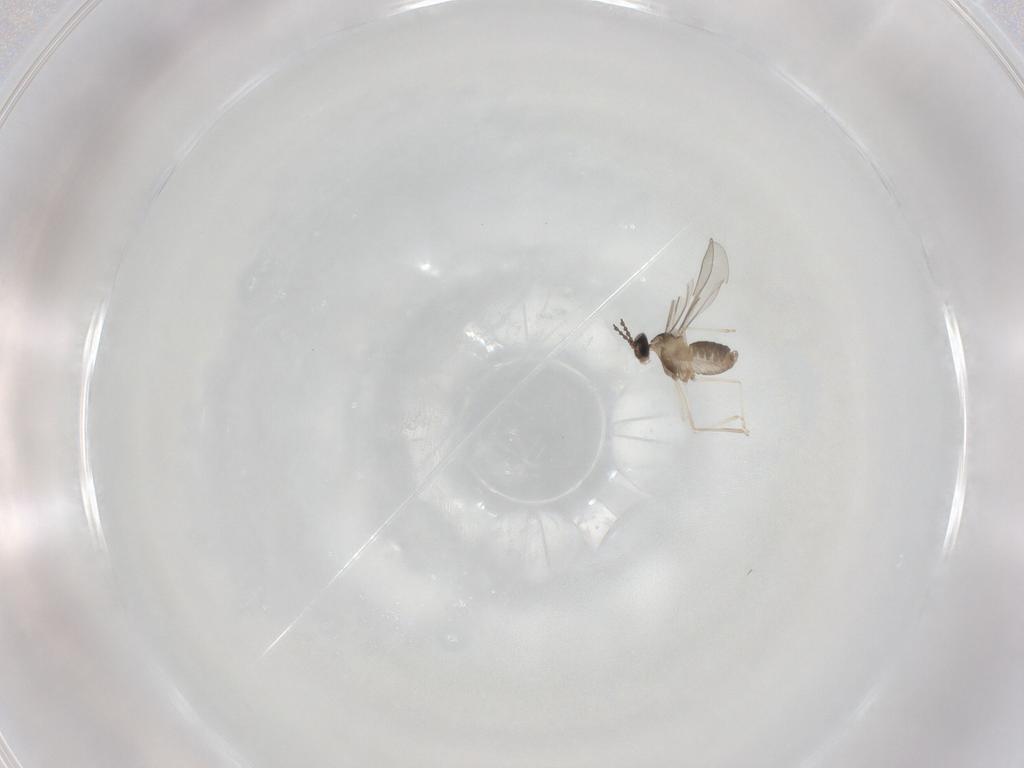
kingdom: Animalia
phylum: Arthropoda
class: Insecta
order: Diptera
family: Cecidomyiidae
